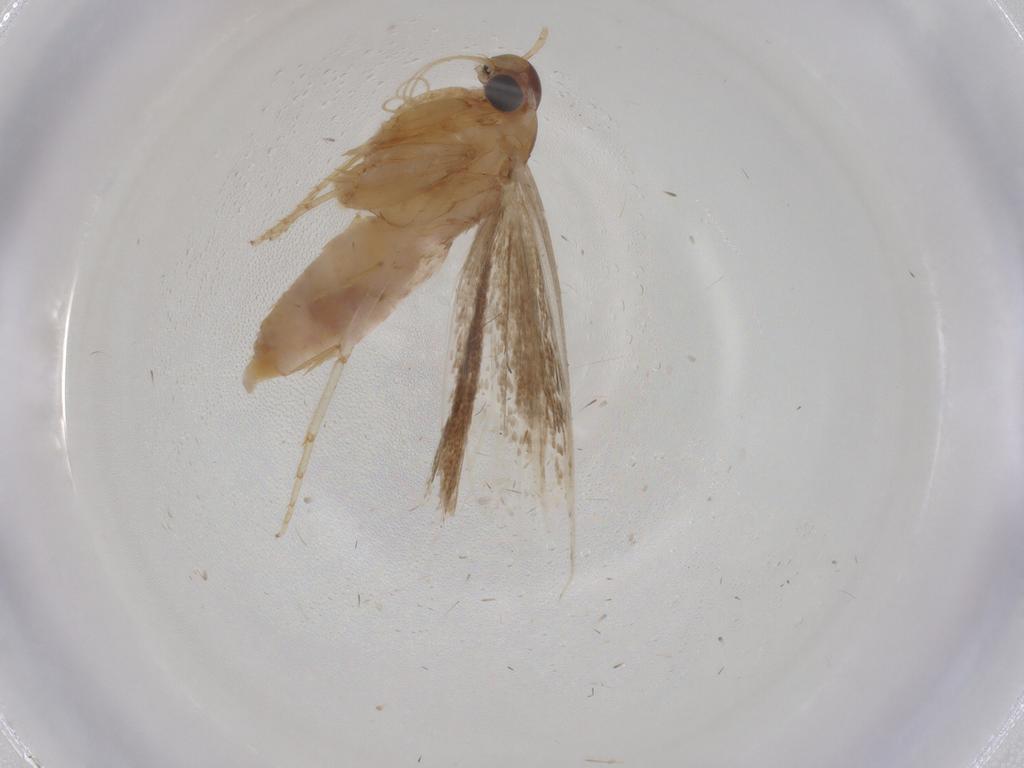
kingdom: Animalia
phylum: Arthropoda
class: Insecta
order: Lepidoptera
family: Gelechiidae
